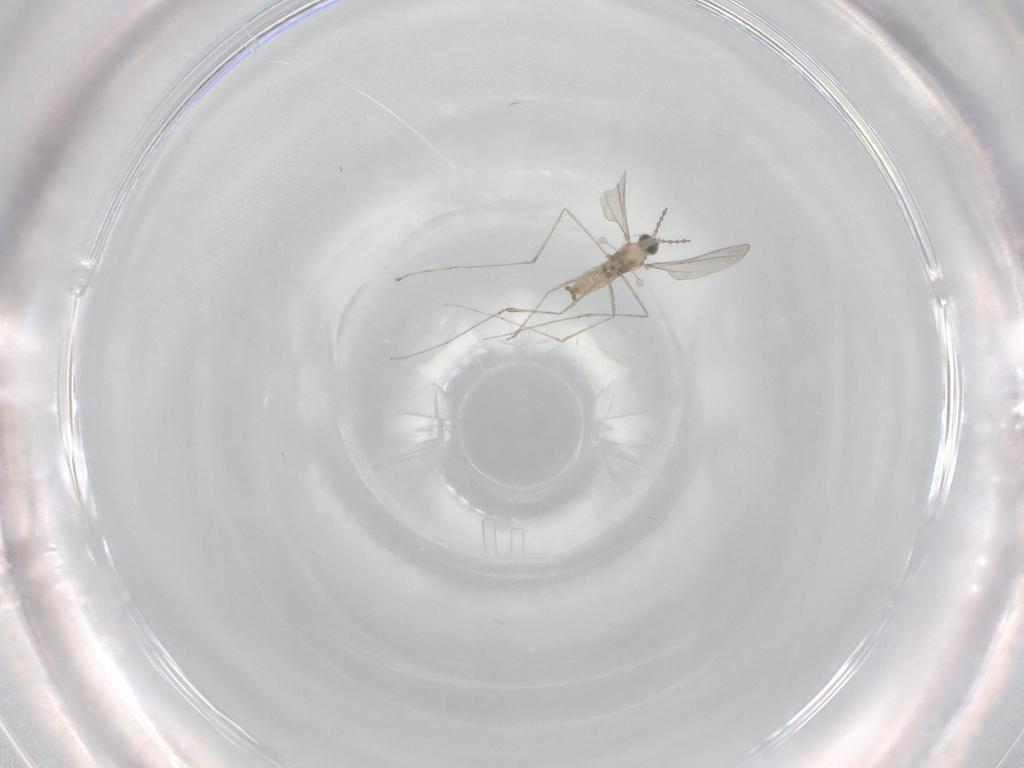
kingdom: Animalia
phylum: Arthropoda
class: Insecta
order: Diptera
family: Cecidomyiidae
